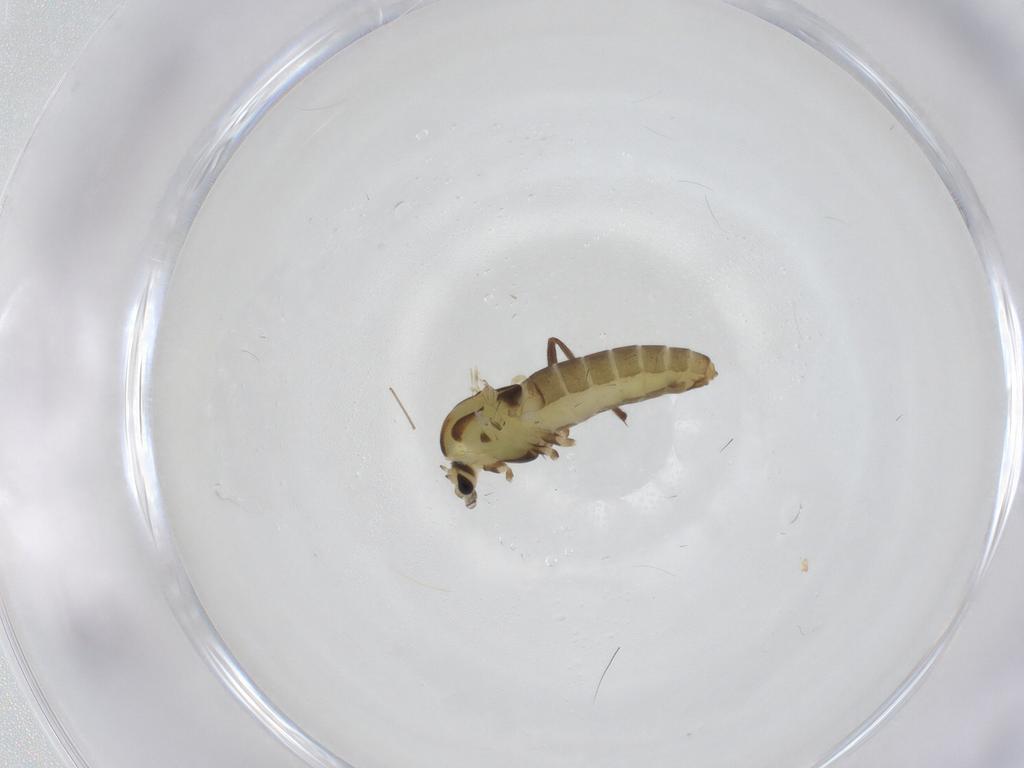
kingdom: Animalia
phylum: Arthropoda
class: Insecta
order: Diptera
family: Chironomidae
